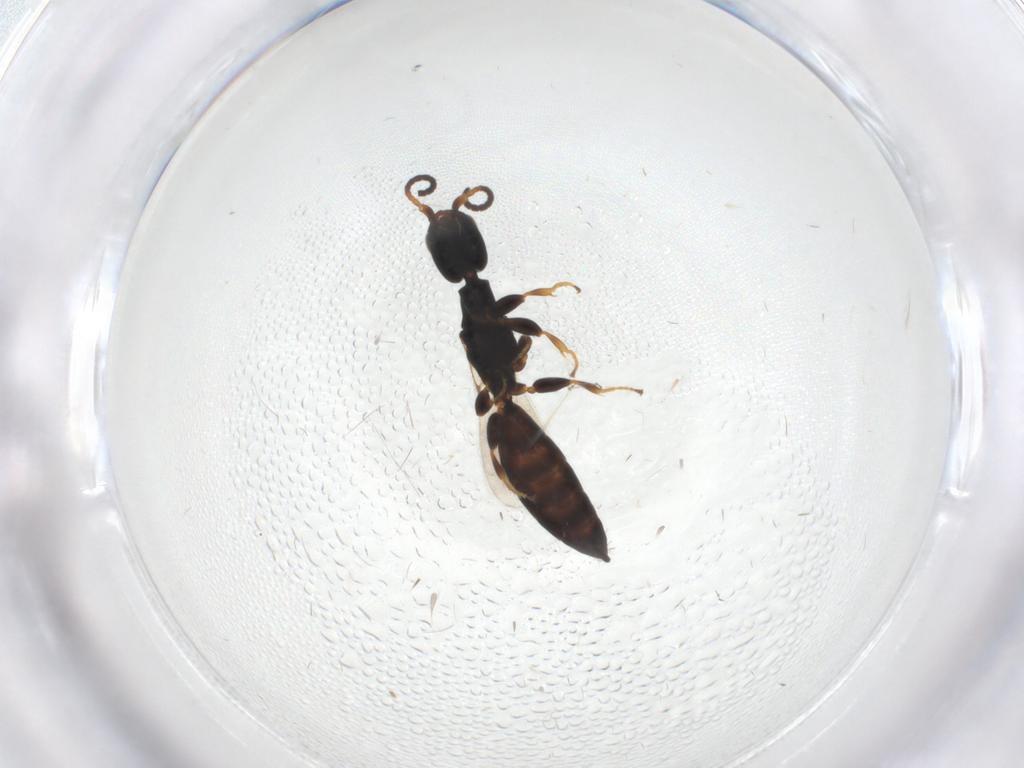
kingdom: Animalia
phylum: Arthropoda
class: Insecta
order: Hymenoptera
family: Bethylidae
